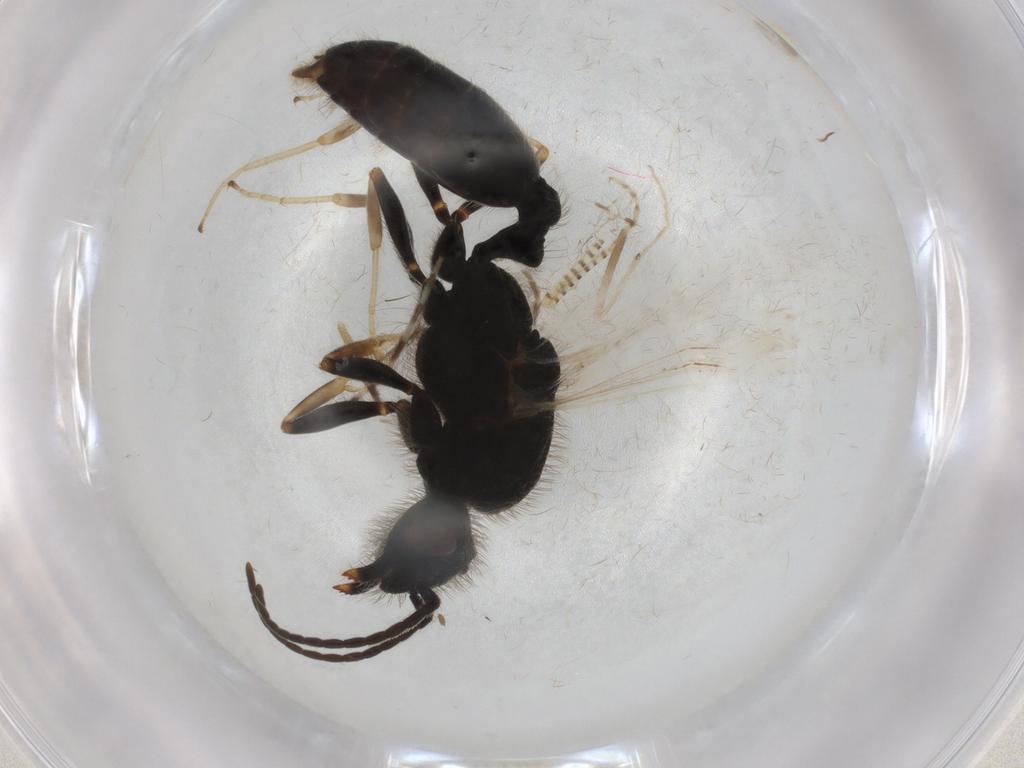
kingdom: Animalia
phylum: Arthropoda
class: Insecta
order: Hymenoptera
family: Formicidae
